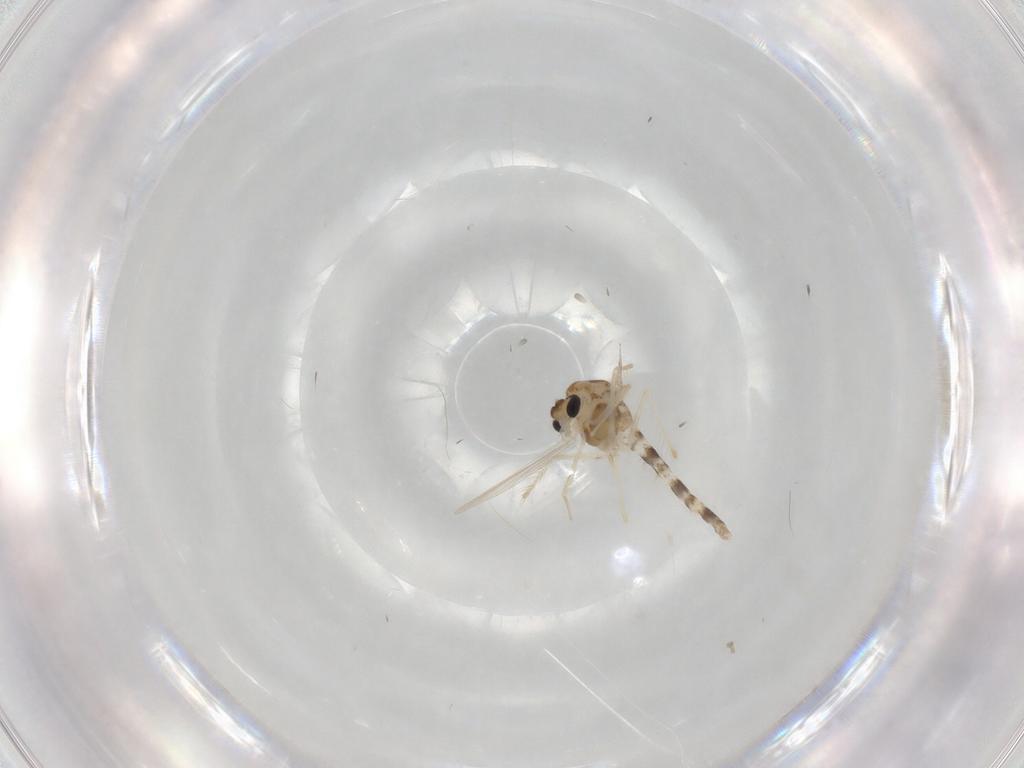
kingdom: Animalia
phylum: Arthropoda
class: Insecta
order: Diptera
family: Chironomidae
